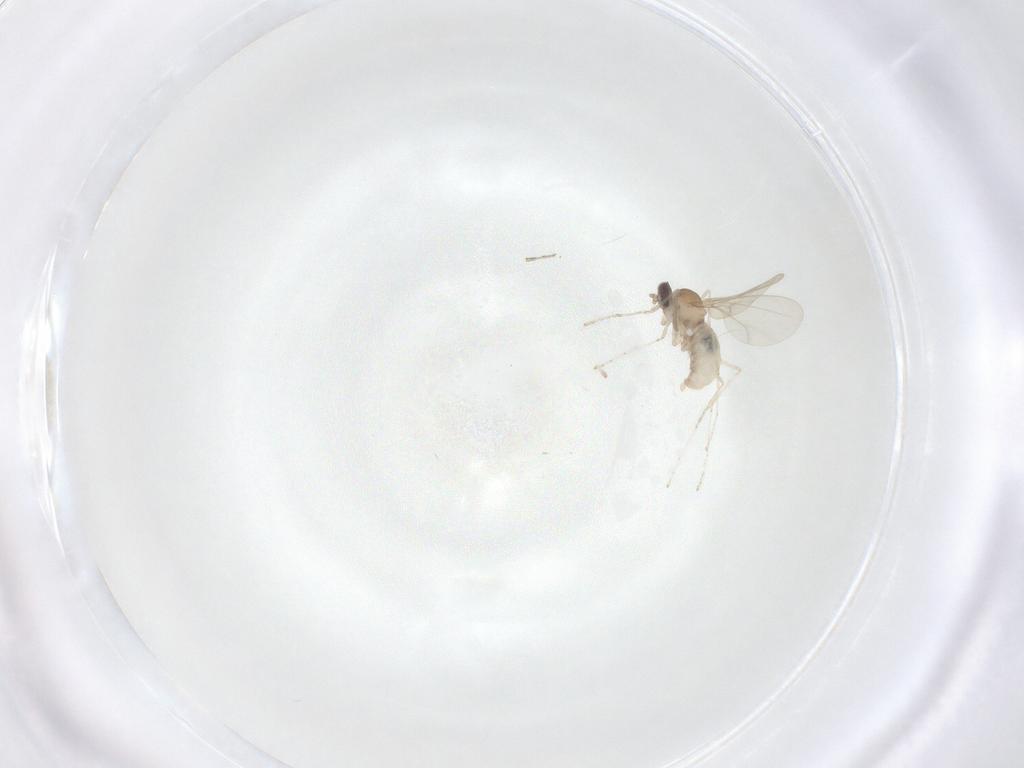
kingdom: Animalia
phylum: Arthropoda
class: Insecta
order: Diptera
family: Cecidomyiidae
